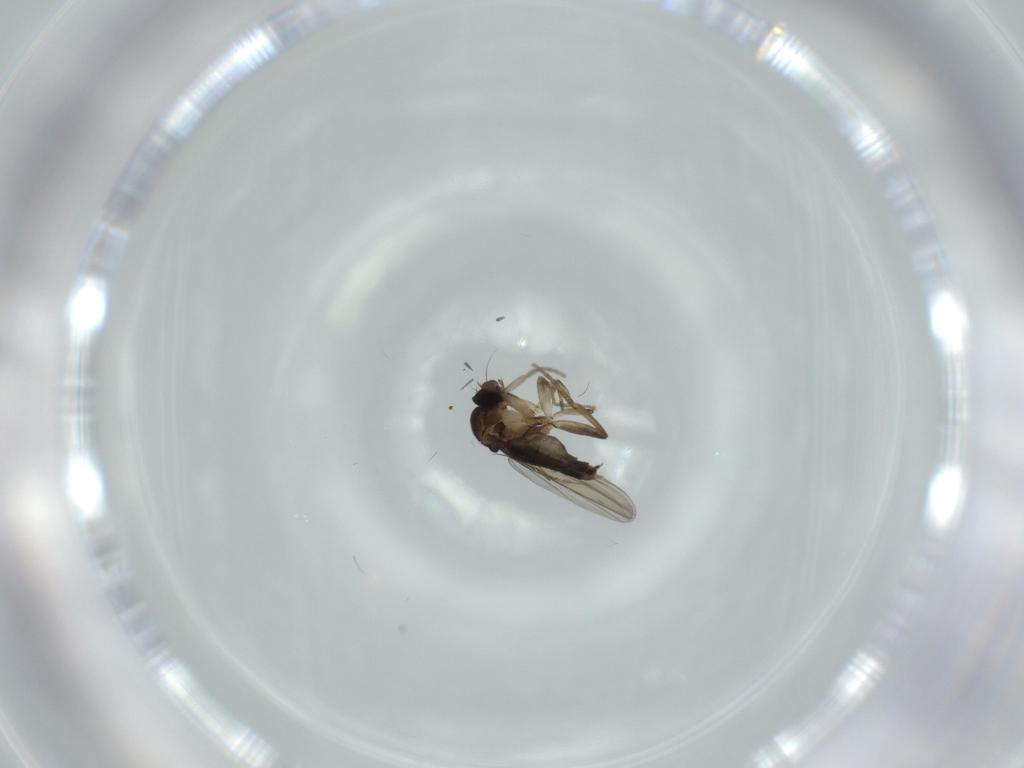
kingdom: Animalia
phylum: Arthropoda
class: Insecta
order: Diptera
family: Phoridae
